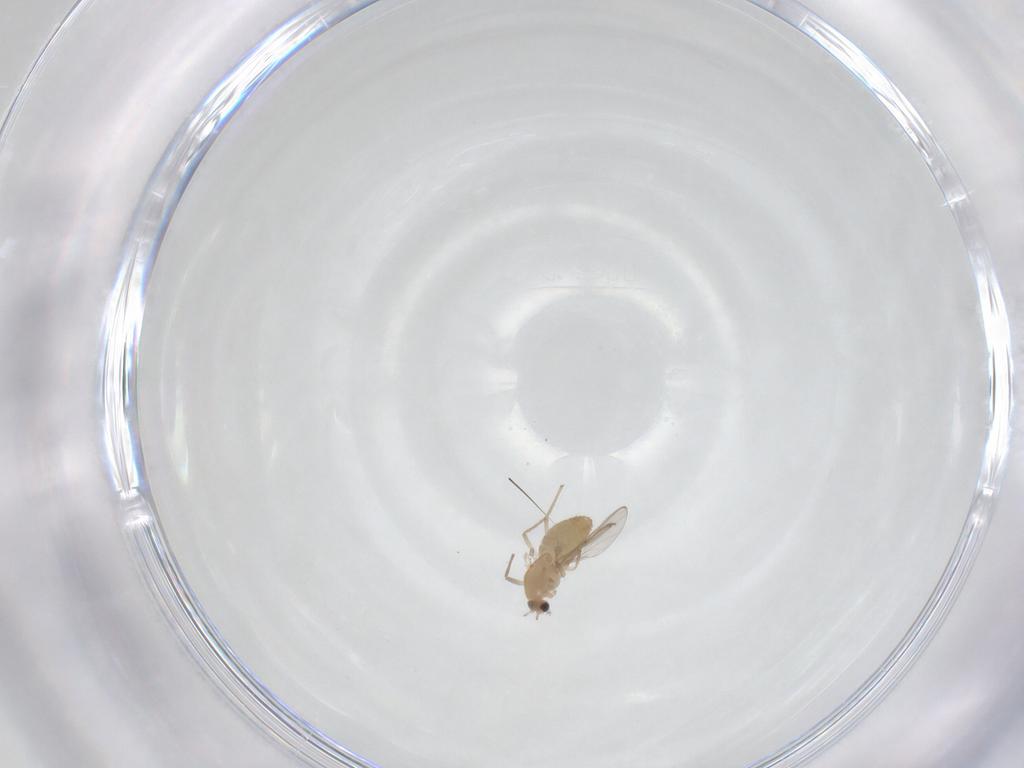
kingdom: Animalia
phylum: Arthropoda
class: Insecta
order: Diptera
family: Chironomidae
